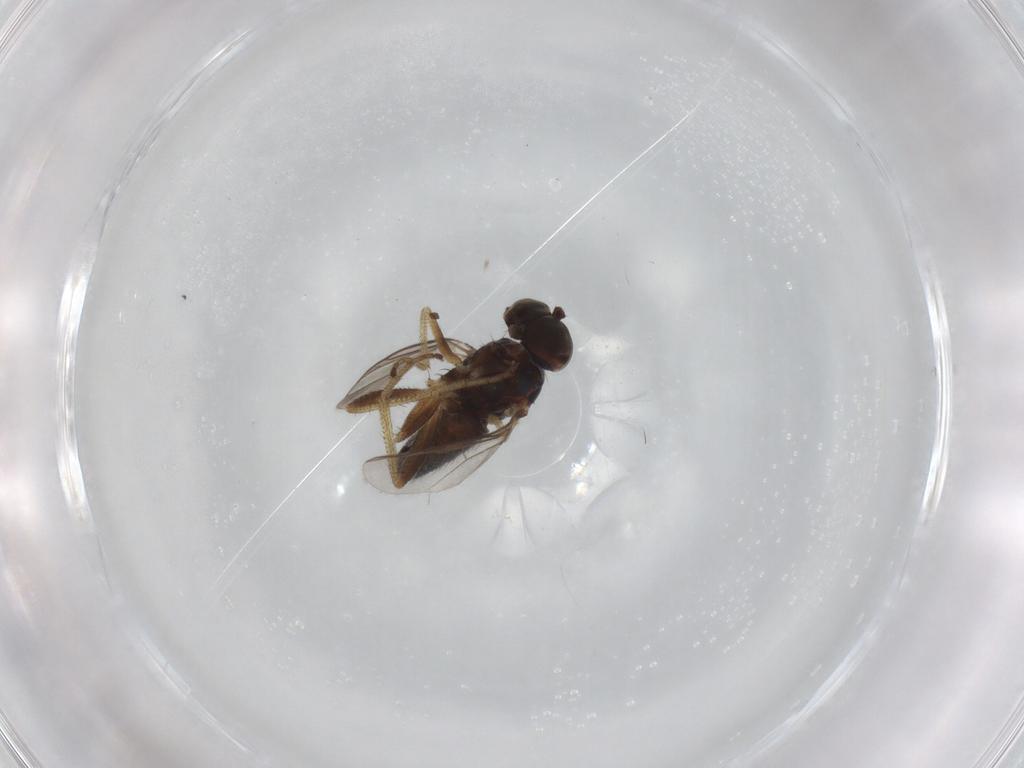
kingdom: Animalia
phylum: Arthropoda
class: Insecta
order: Diptera
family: Dolichopodidae
